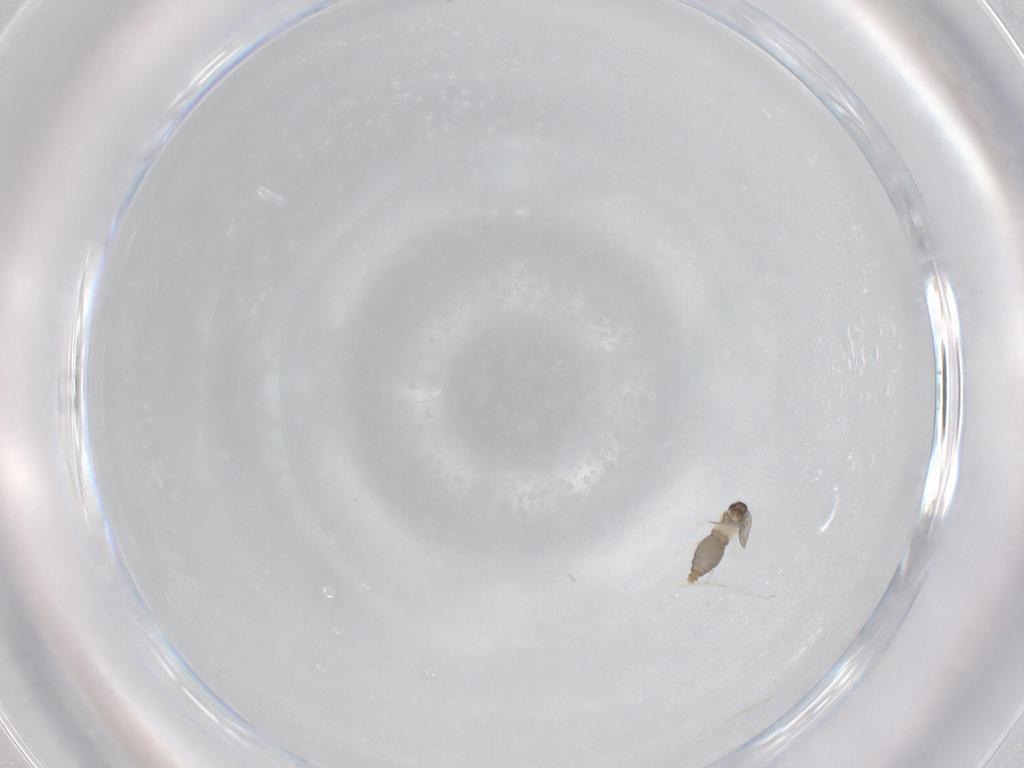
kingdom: Animalia
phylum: Arthropoda
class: Insecta
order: Diptera
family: Cecidomyiidae
